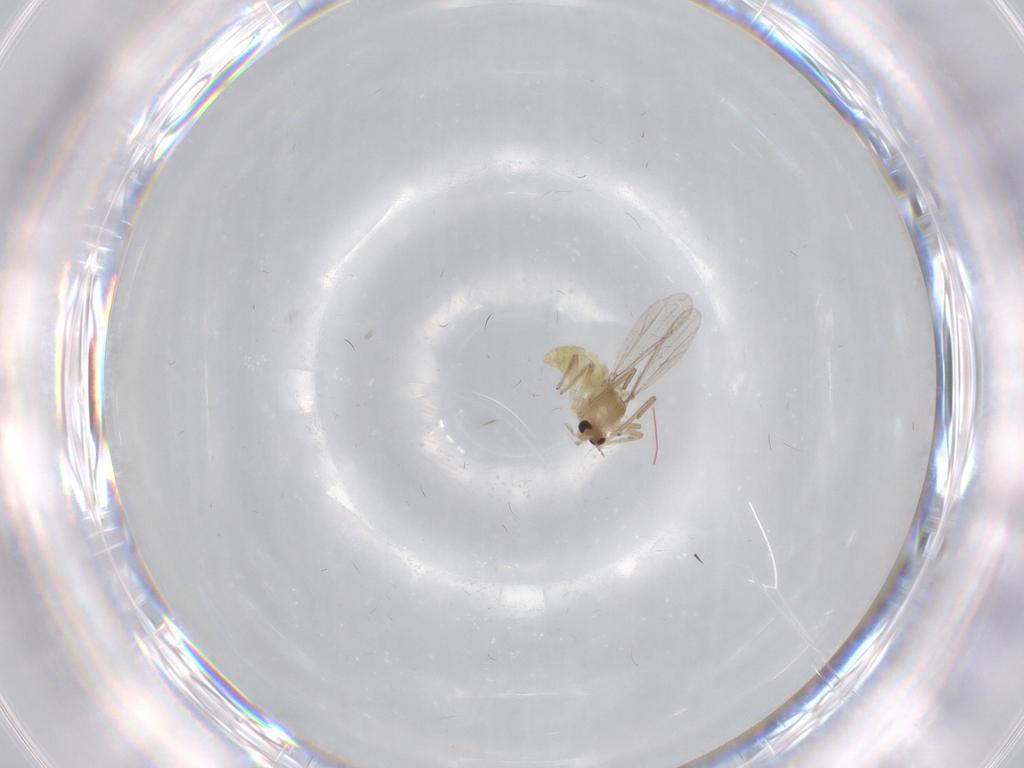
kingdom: Animalia
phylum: Arthropoda
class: Insecta
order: Diptera
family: Chironomidae
